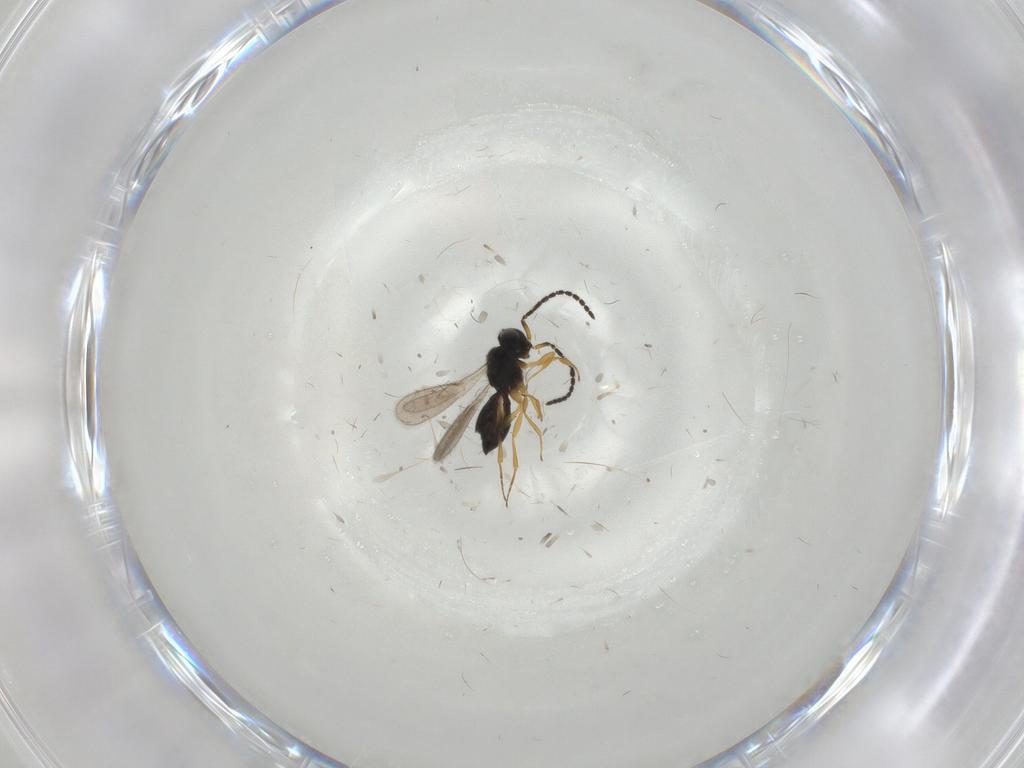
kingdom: Animalia
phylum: Arthropoda
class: Insecta
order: Hymenoptera
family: Scelionidae
